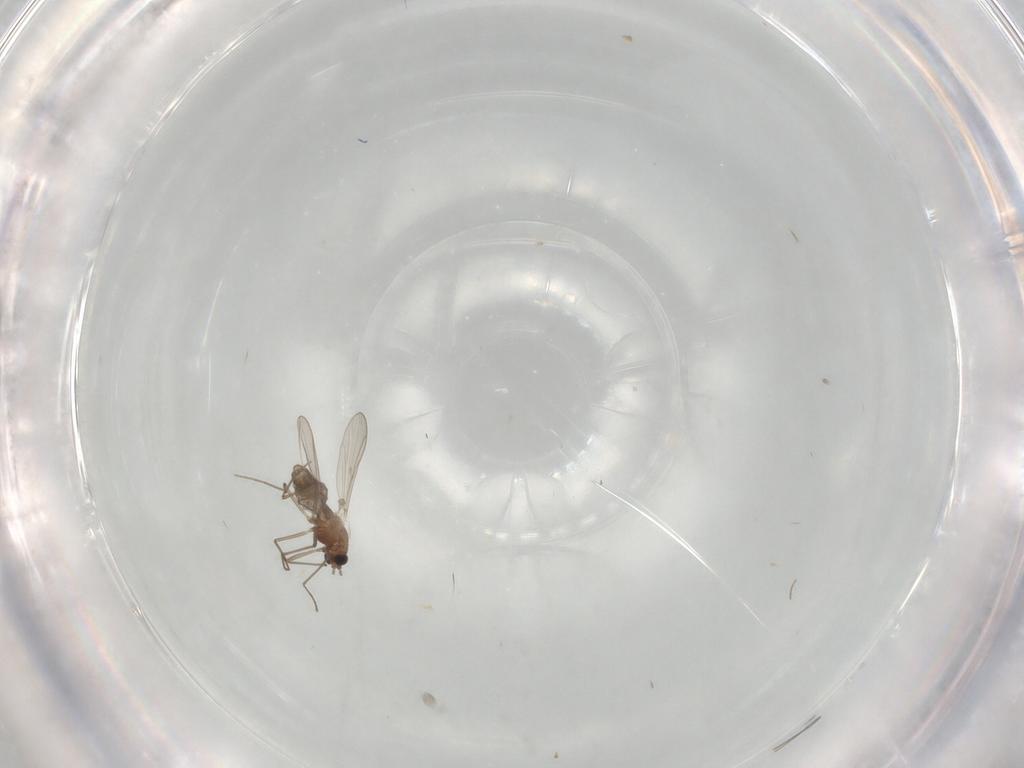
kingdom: Animalia
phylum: Arthropoda
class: Insecta
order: Diptera
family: Chironomidae
